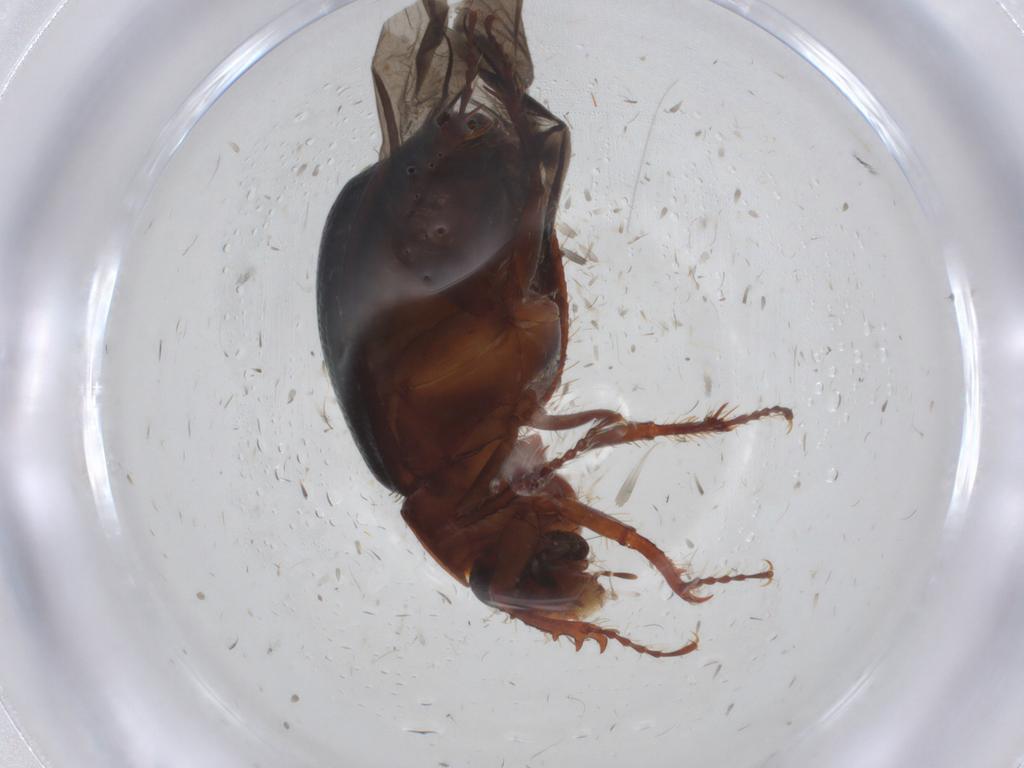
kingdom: Animalia
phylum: Arthropoda
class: Insecta
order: Coleoptera
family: Hybosoridae
